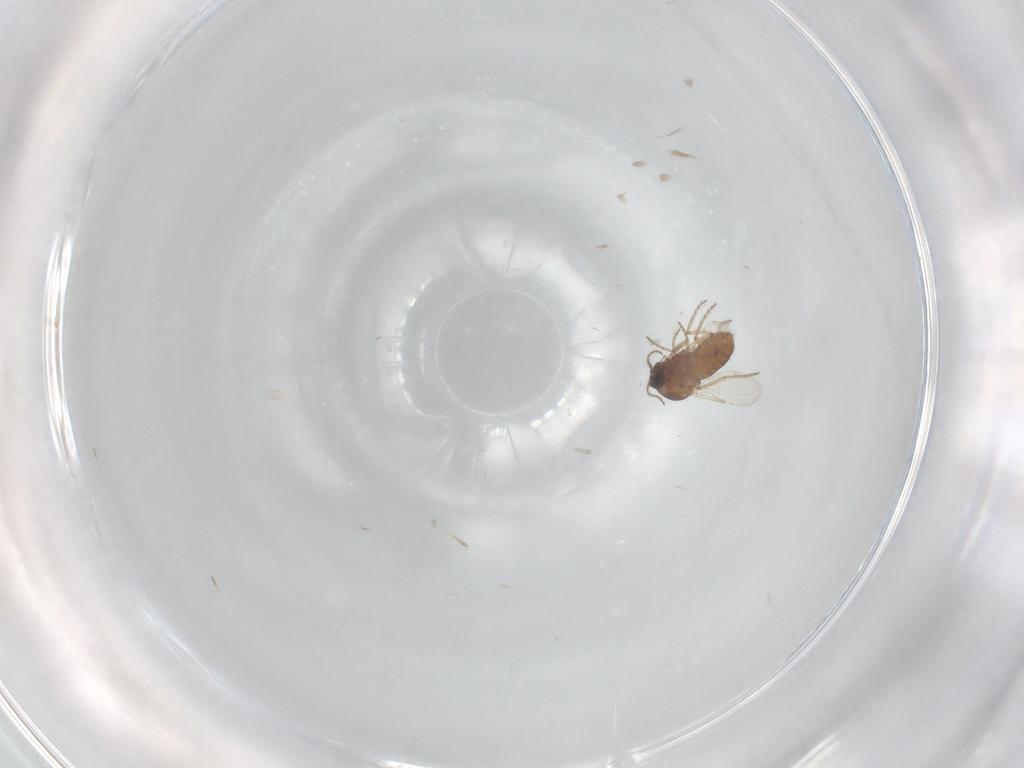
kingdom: Animalia
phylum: Arthropoda
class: Insecta
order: Diptera
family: Ceratopogonidae
